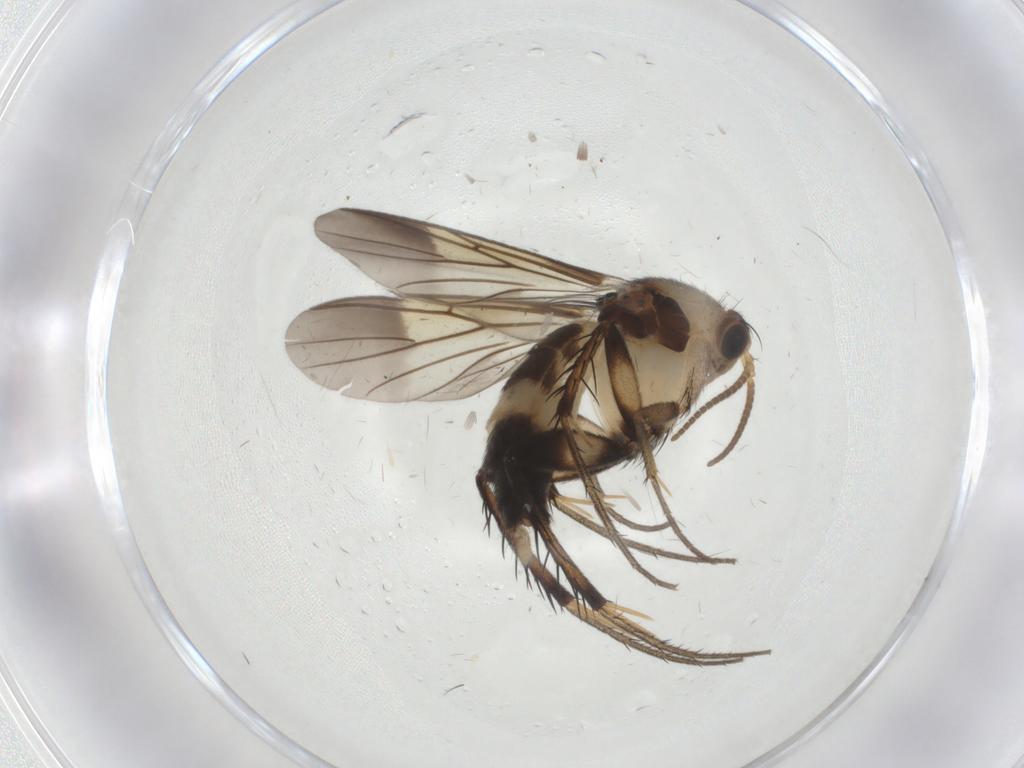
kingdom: Animalia
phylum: Arthropoda
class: Insecta
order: Diptera
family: Mycetophilidae
